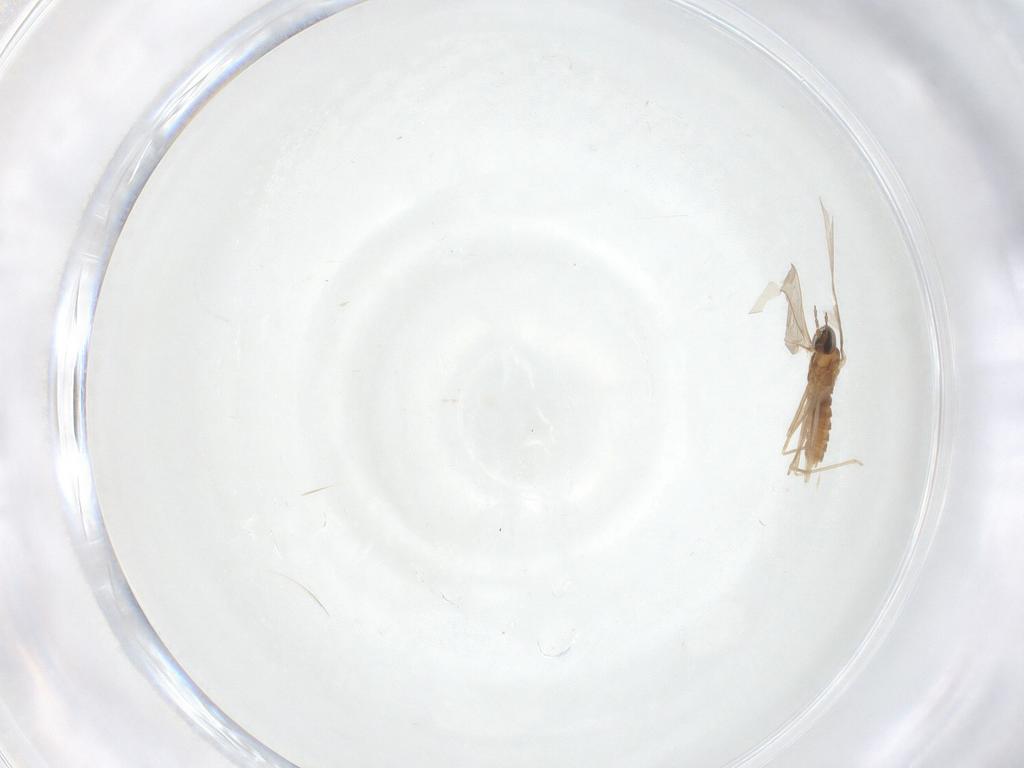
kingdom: Animalia
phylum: Arthropoda
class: Insecta
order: Diptera
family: Cecidomyiidae
